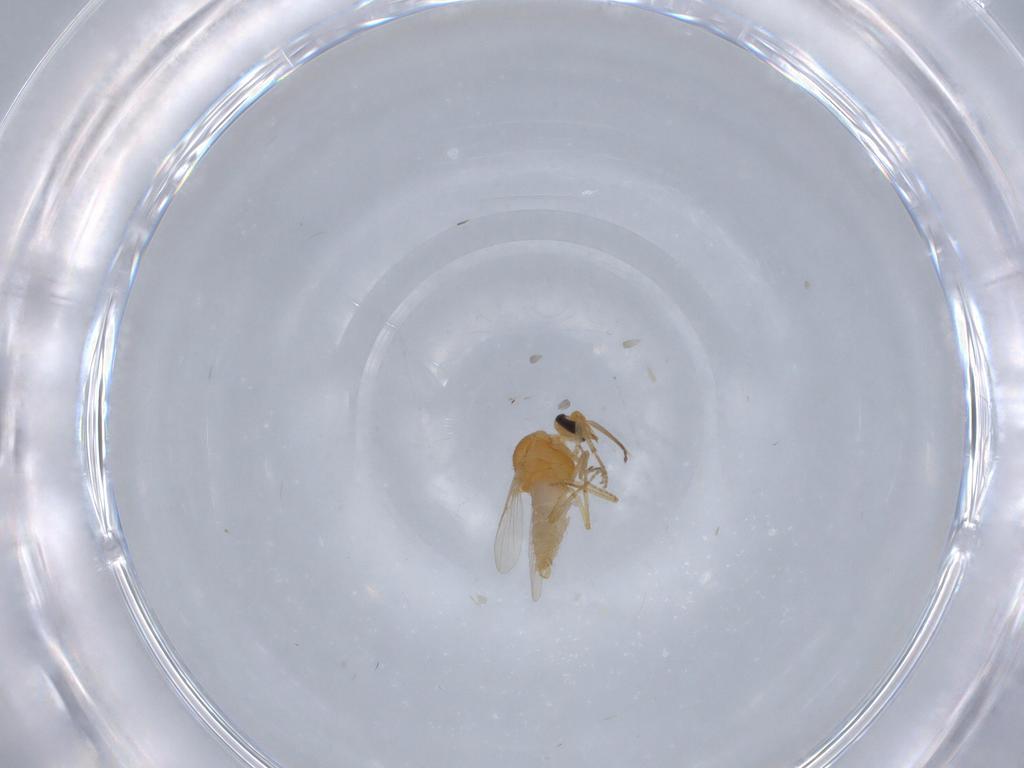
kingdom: Animalia
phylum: Arthropoda
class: Insecta
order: Diptera
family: Ceratopogonidae
